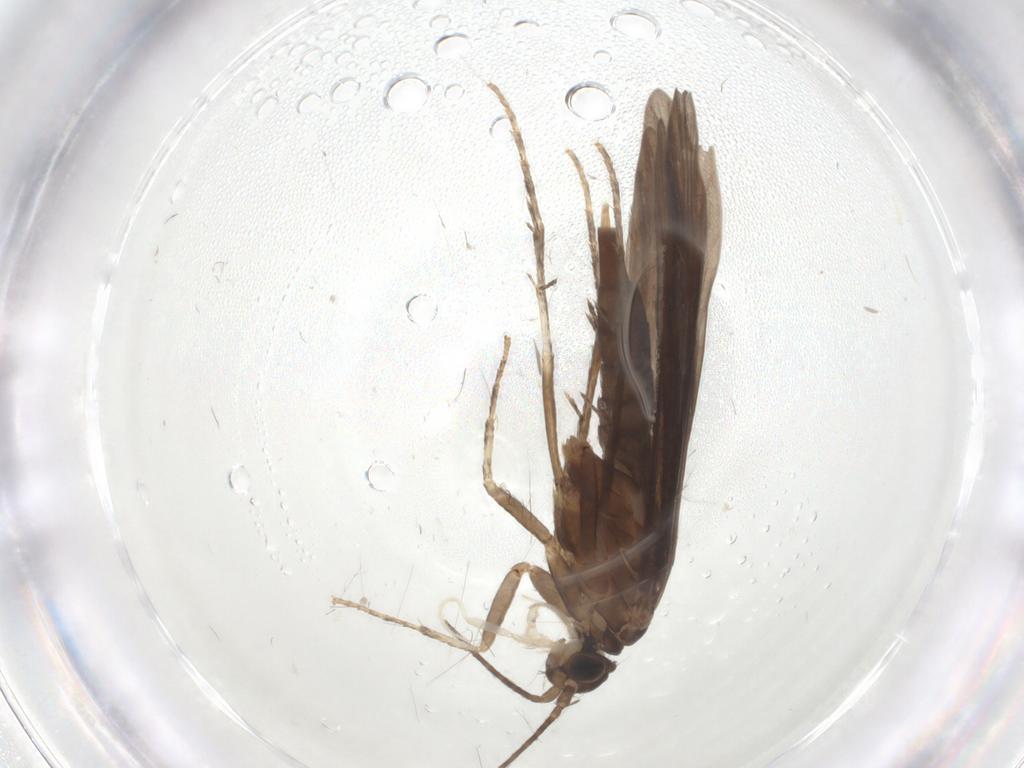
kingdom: Animalia
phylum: Arthropoda
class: Insecta
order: Trichoptera
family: Xiphocentronidae
